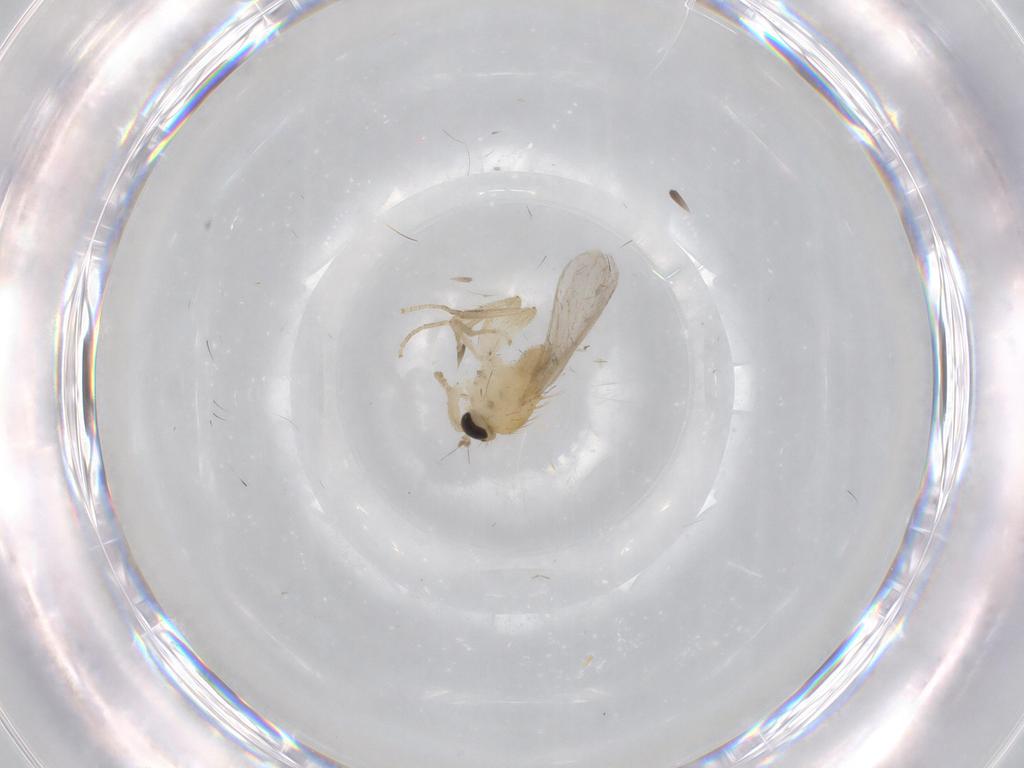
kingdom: Animalia
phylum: Arthropoda
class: Insecta
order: Diptera
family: Hybotidae
